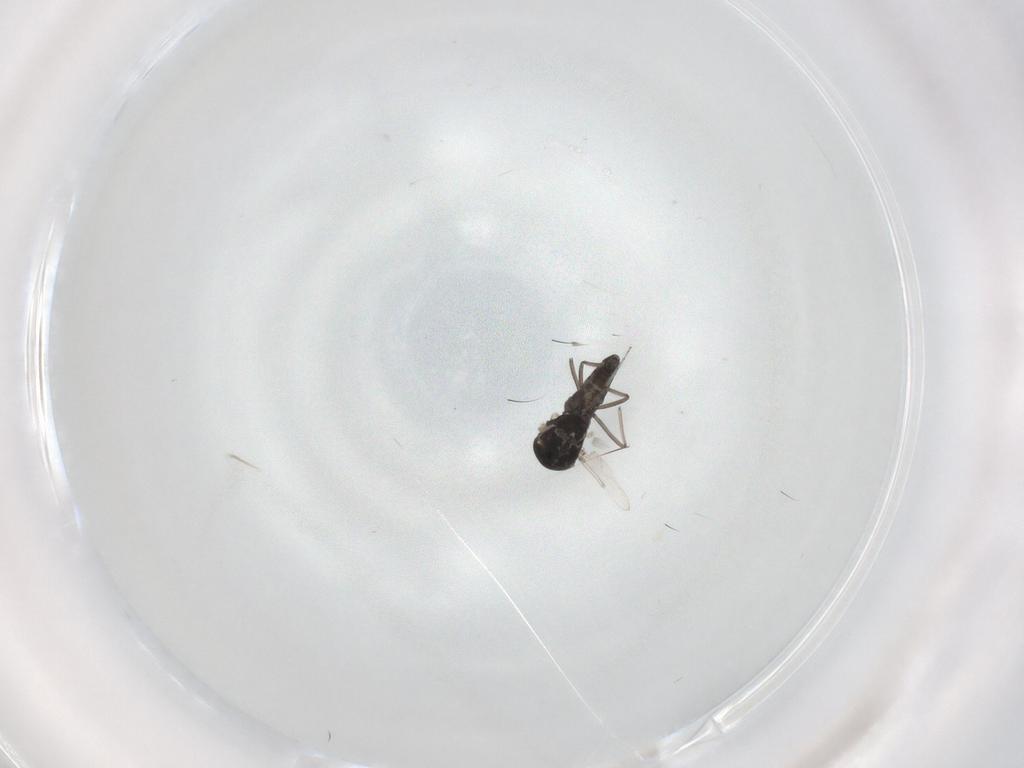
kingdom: Animalia
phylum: Arthropoda
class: Insecta
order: Diptera
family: Ceratopogonidae
